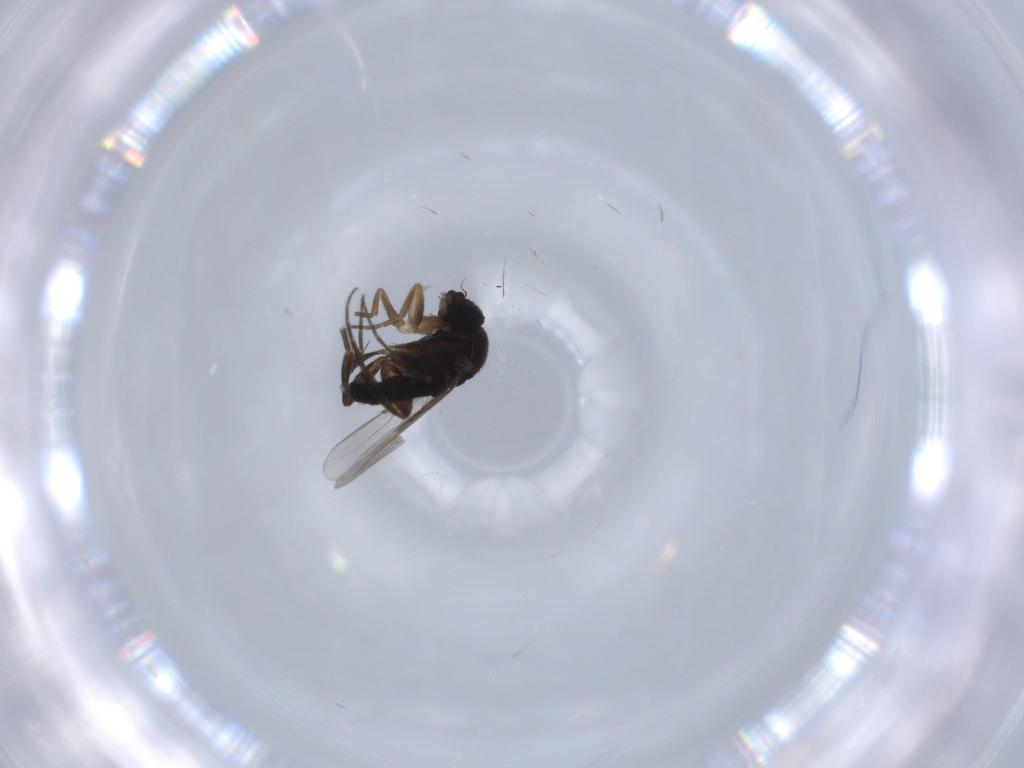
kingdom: Animalia
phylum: Arthropoda
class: Insecta
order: Diptera
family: Phoridae
